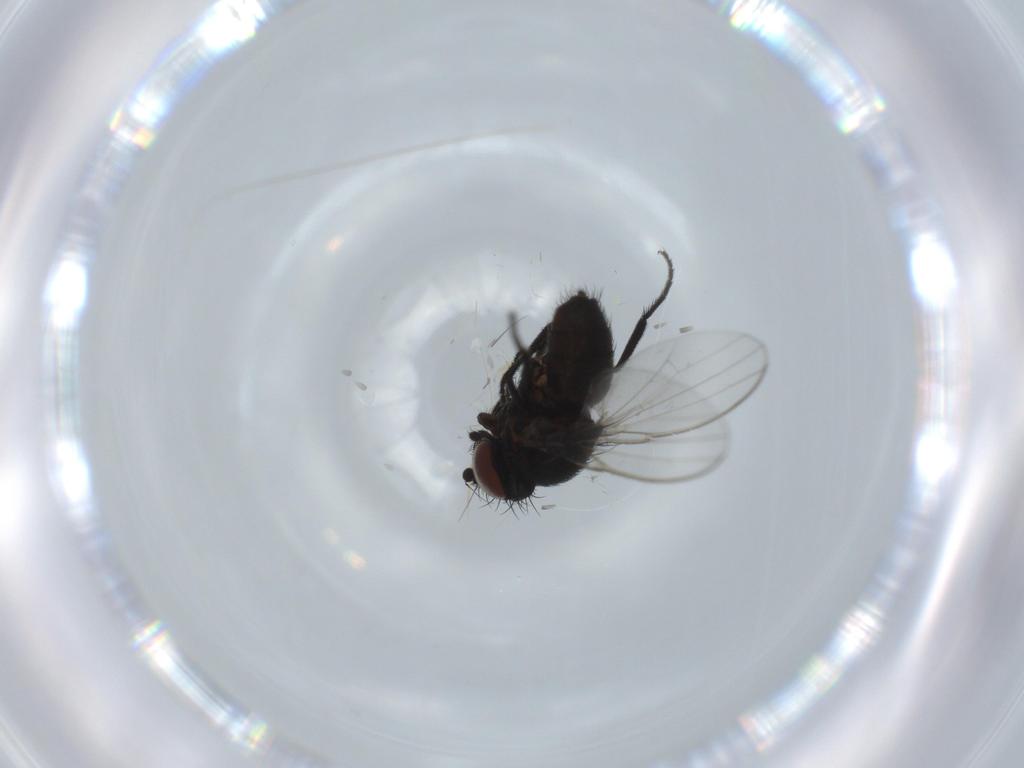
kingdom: Animalia
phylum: Arthropoda
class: Insecta
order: Diptera
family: Milichiidae
